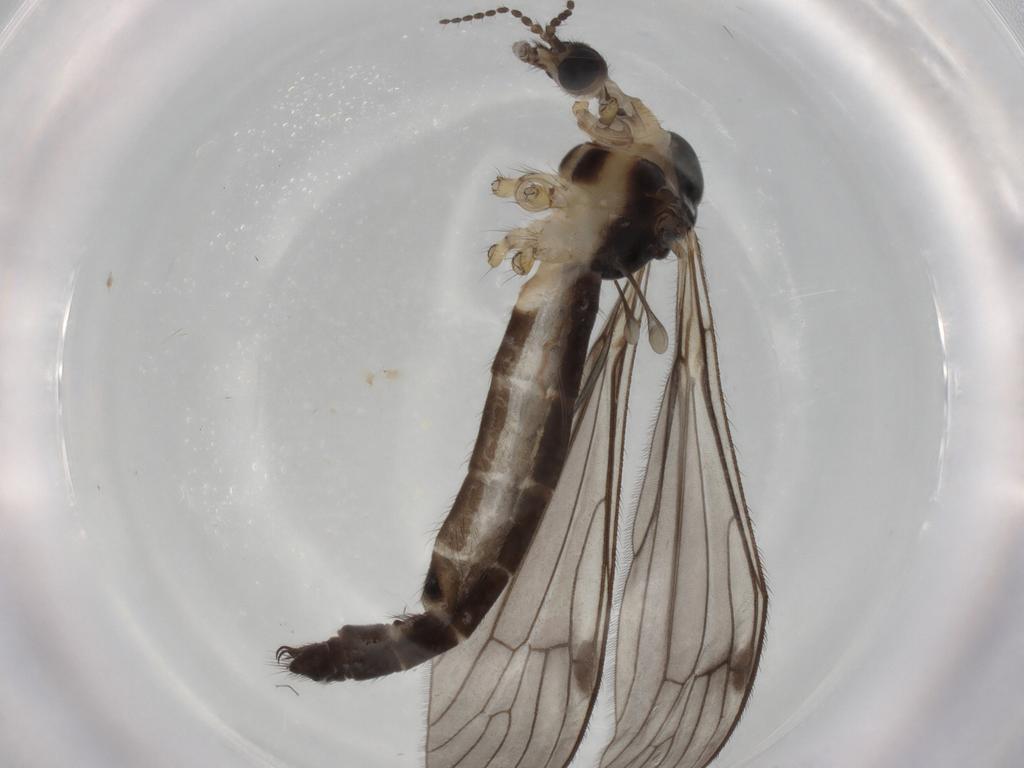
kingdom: Animalia
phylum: Arthropoda
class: Insecta
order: Diptera
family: Limoniidae
